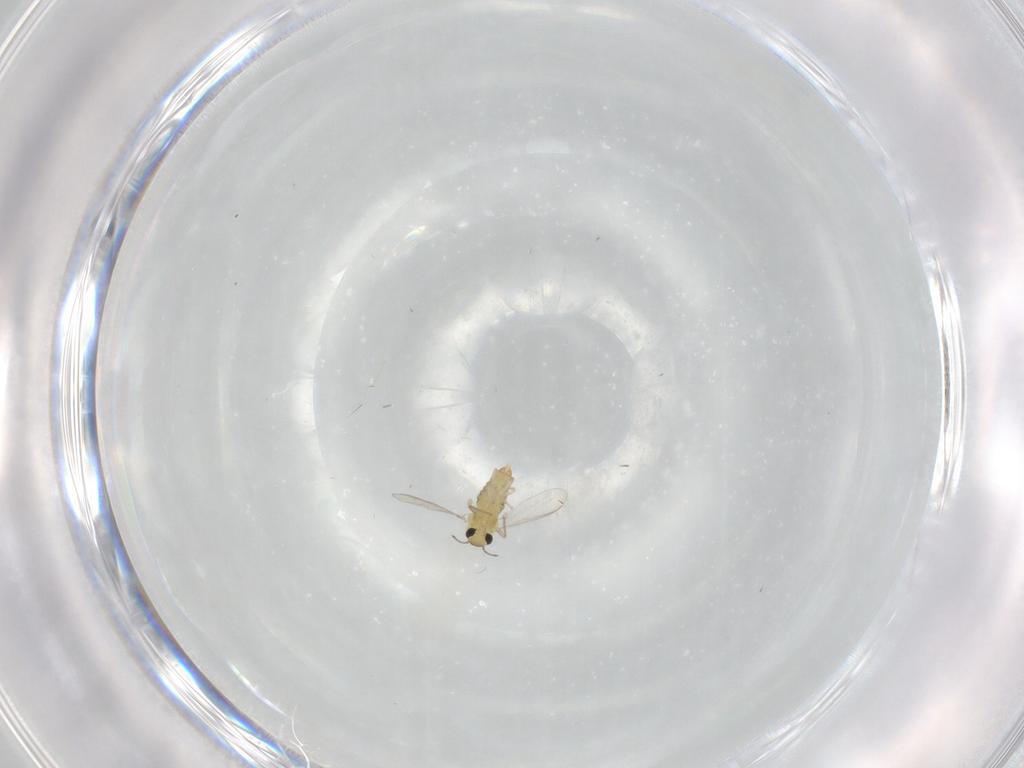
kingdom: Animalia
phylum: Arthropoda
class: Insecta
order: Diptera
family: Chironomidae
